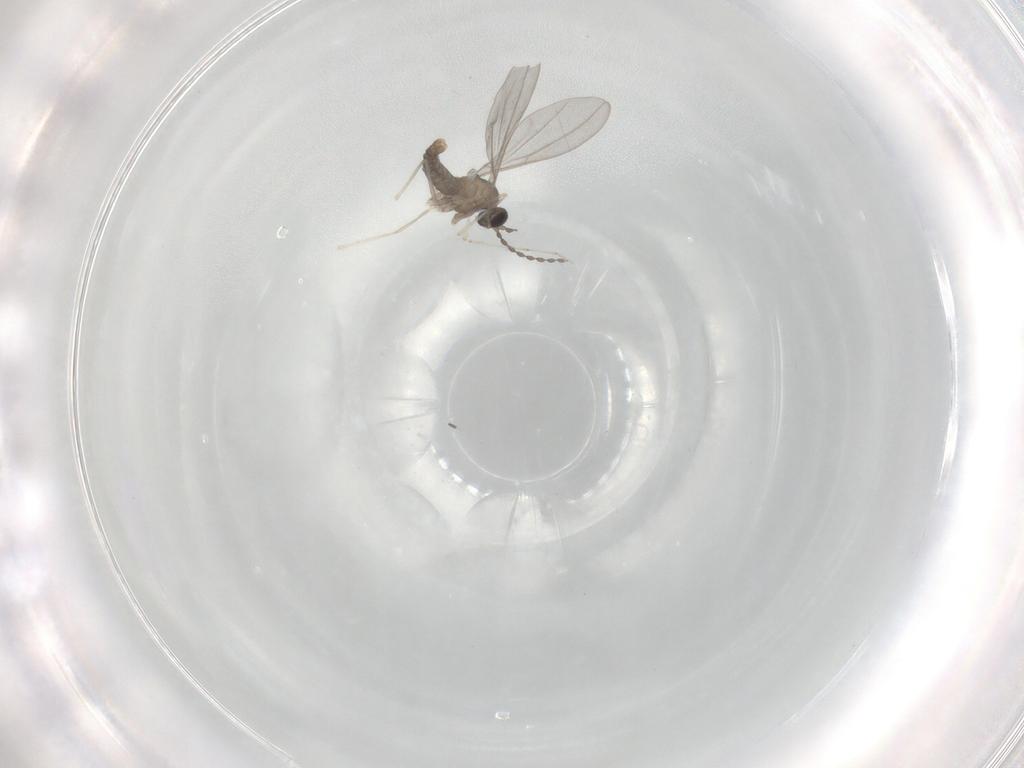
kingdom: Animalia
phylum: Arthropoda
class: Insecta
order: Diptera
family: Cecidomyiidae
